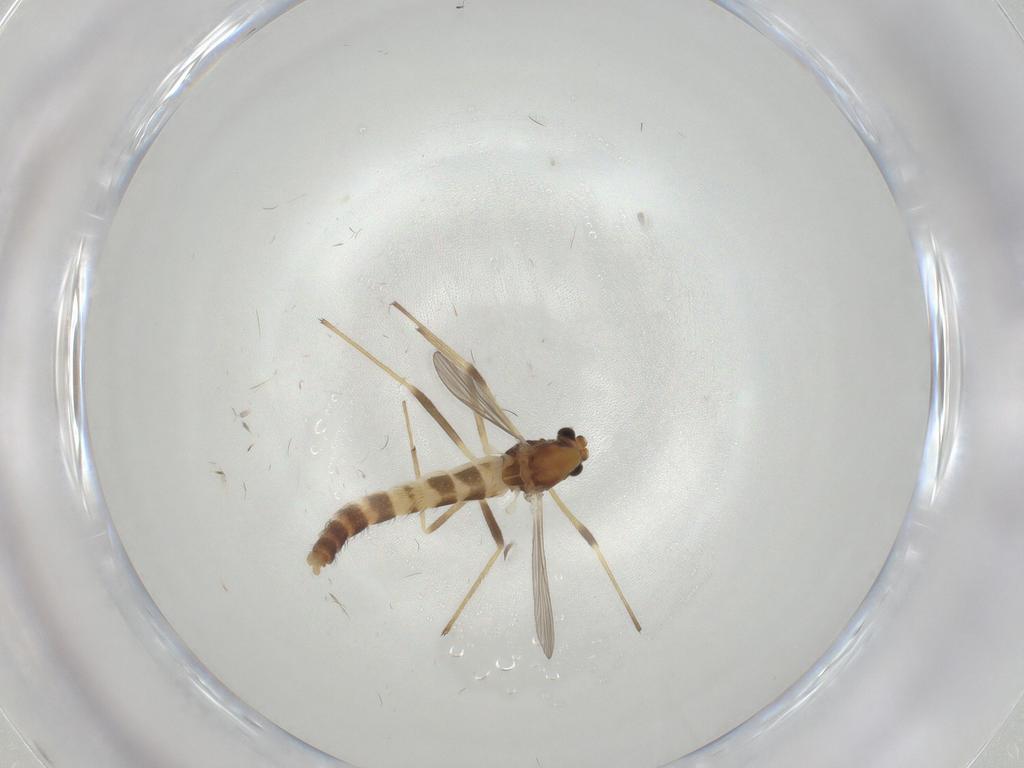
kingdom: Animalia
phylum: Arthropoda
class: Insecta
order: Diptera
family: Chironomidae
